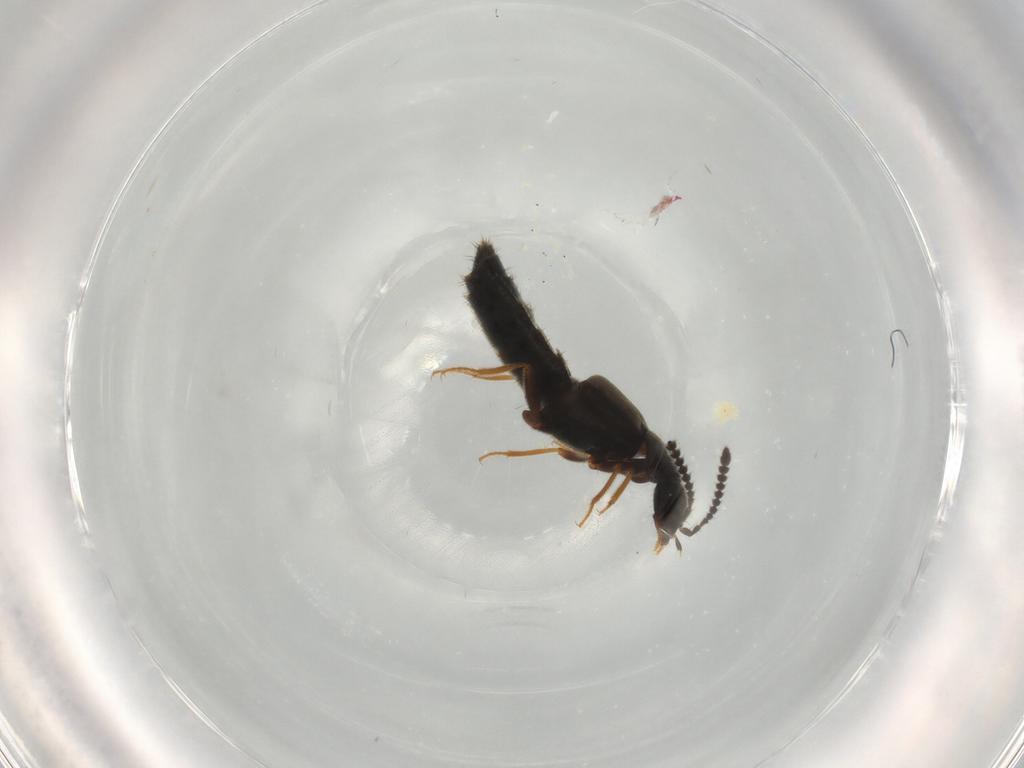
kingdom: Animalia
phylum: Arthropoda
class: Insecta
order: Coleoptera
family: Staphylinidae
